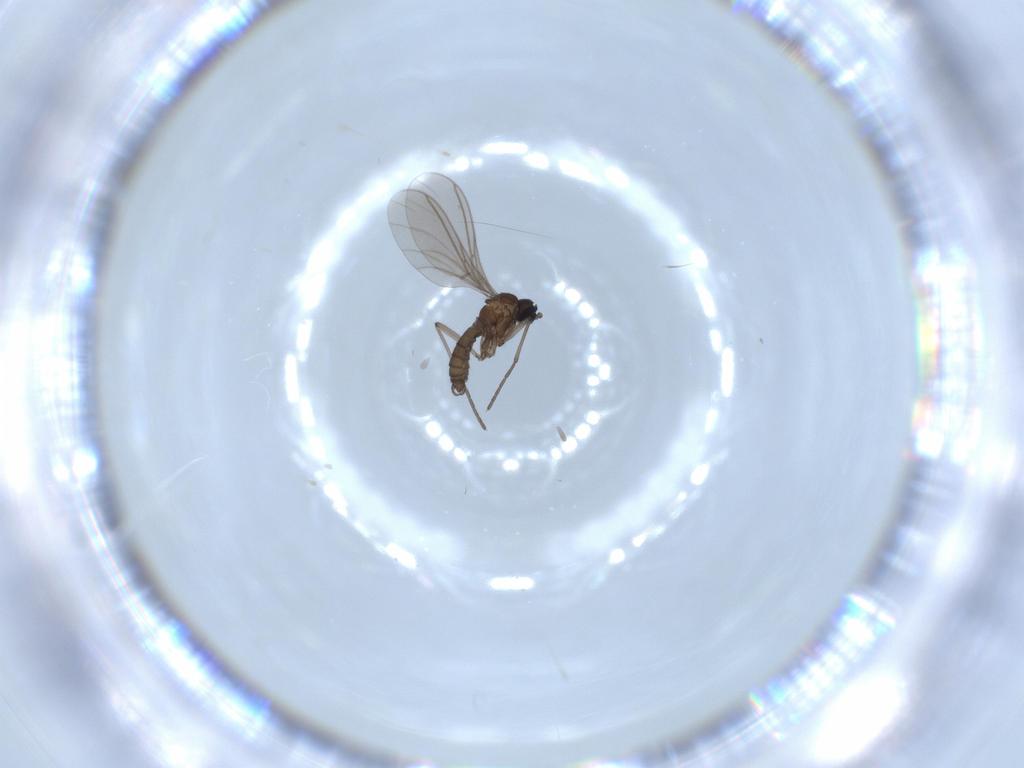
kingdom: Animalia
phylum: Arthropoda
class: Insecta
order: Diptera
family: Sciaridae
